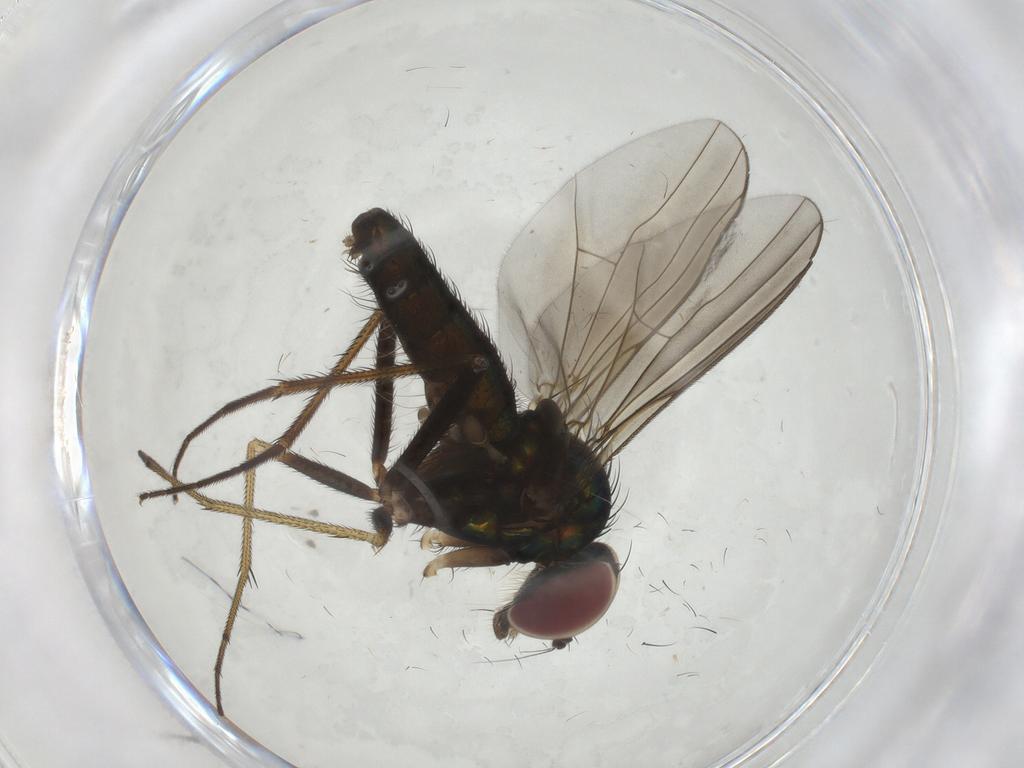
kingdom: Animalia
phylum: Arthropoda
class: Insecta
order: Diptera
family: Dolichopodidae
